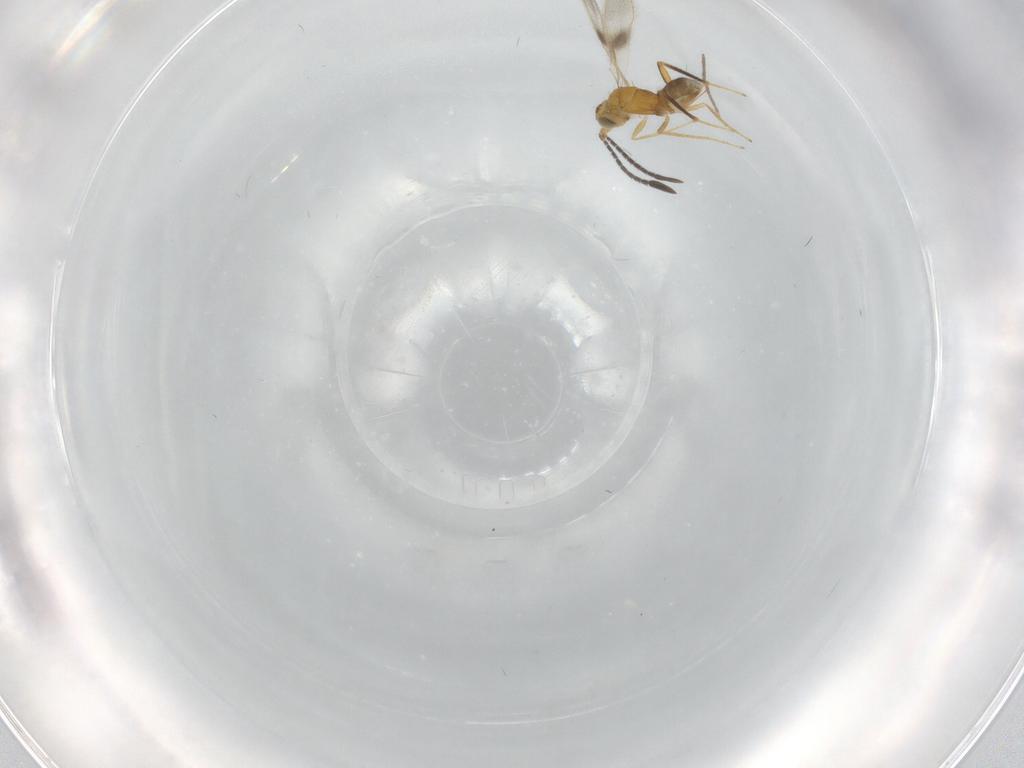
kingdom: Animalia
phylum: Arthropoda
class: Insecta
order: Hymenoptera
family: Mymaridae
